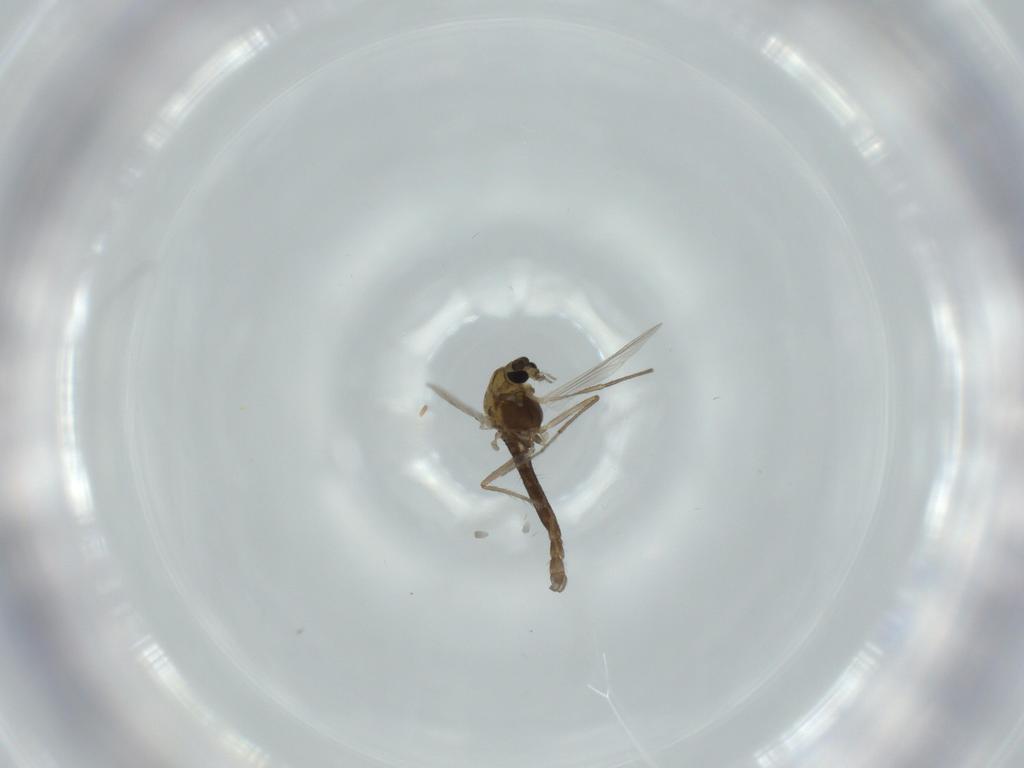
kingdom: Animalia
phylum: Arthropoda
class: Insecta
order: Diptera
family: Chironomidae
